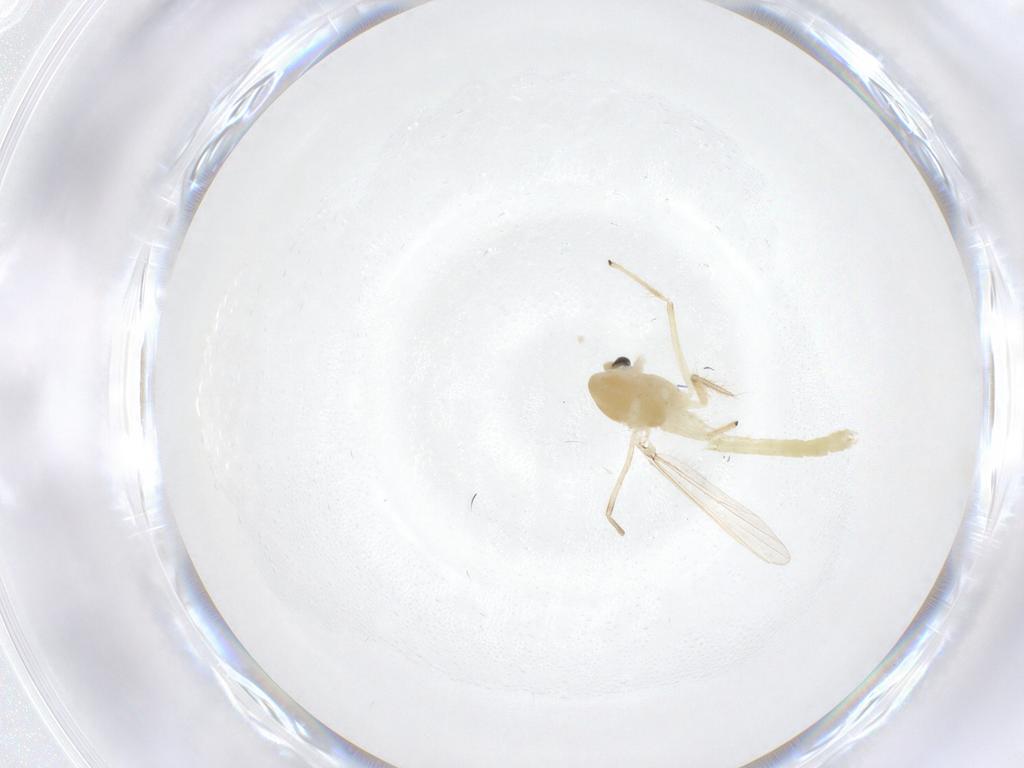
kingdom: Animalia
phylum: Arthropoda
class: Insecta
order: Diptera
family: Chironomidae
